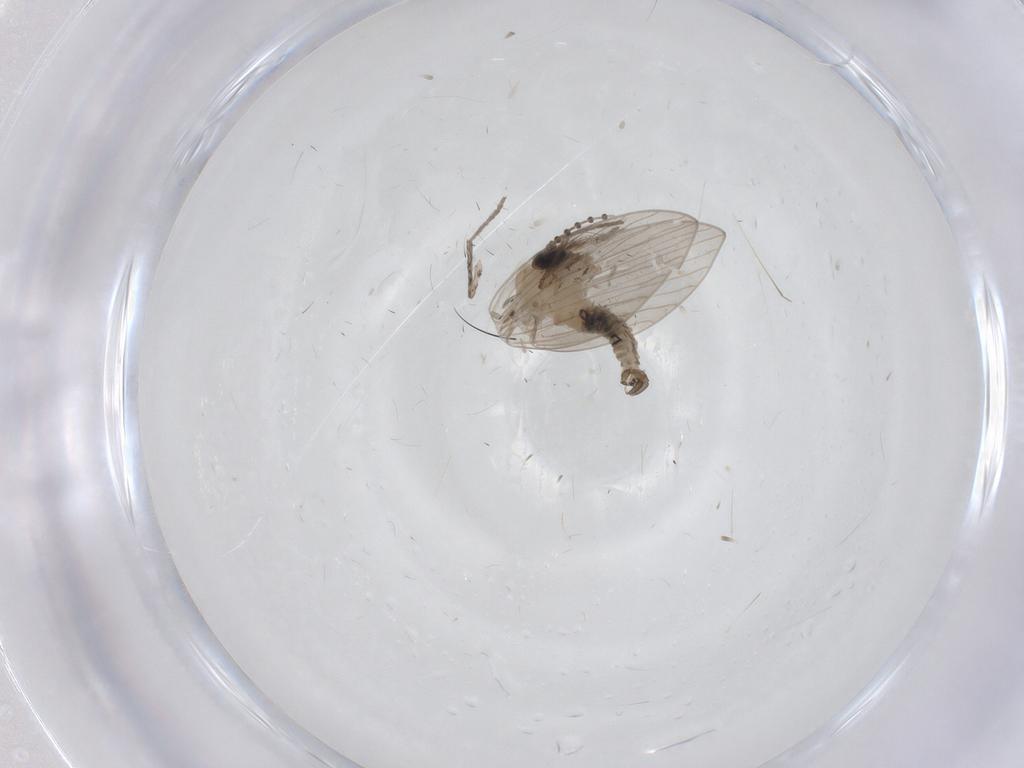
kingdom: Animalia
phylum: Arthropoda
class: Insecta
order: Diptera
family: Psychodidae
